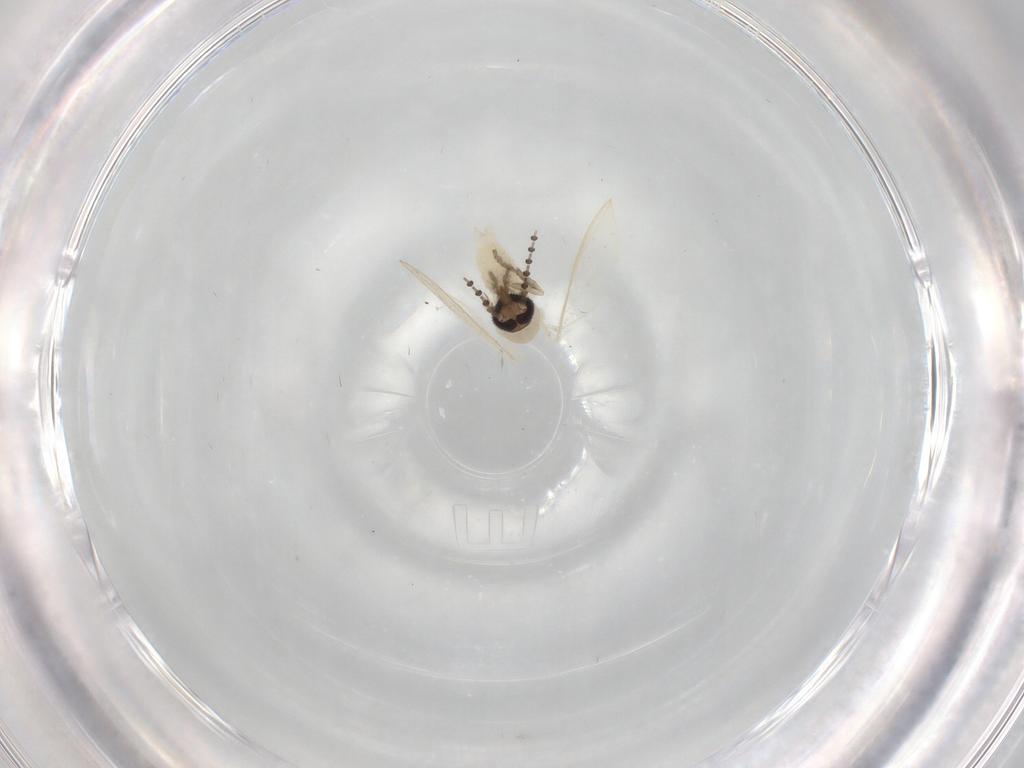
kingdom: Animalia
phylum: Arthropoda
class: Insecta
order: Diptera
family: Psychodidae
